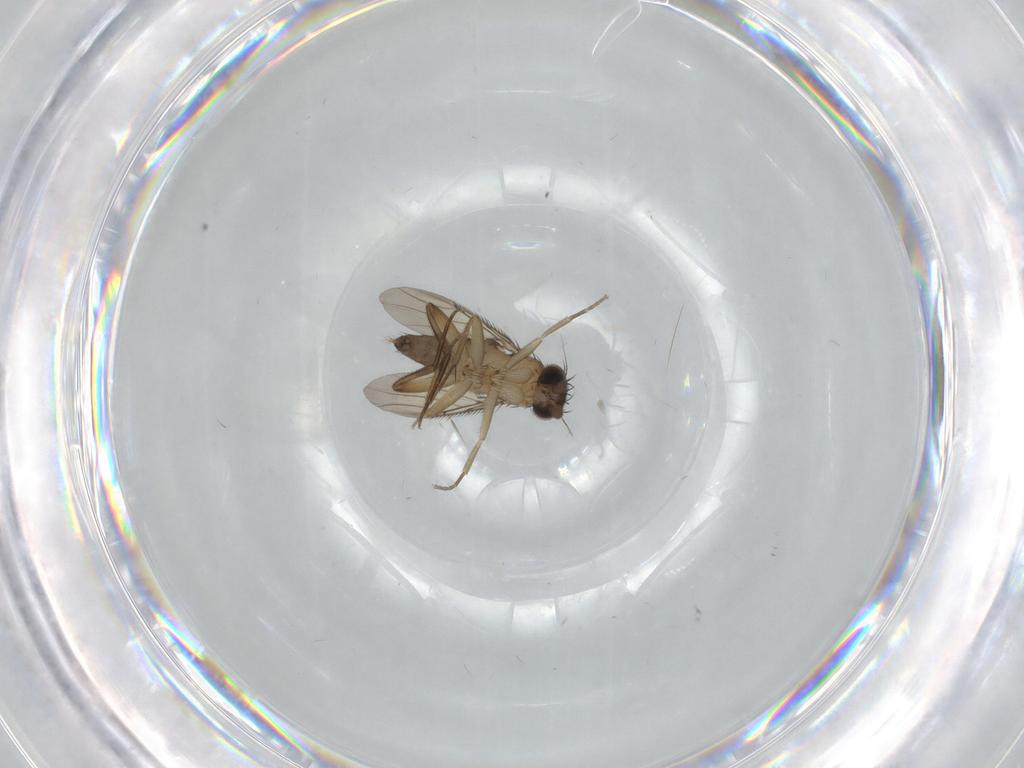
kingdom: Animalia
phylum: Arthropoda
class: Insecta
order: Diptera
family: Phoridae
